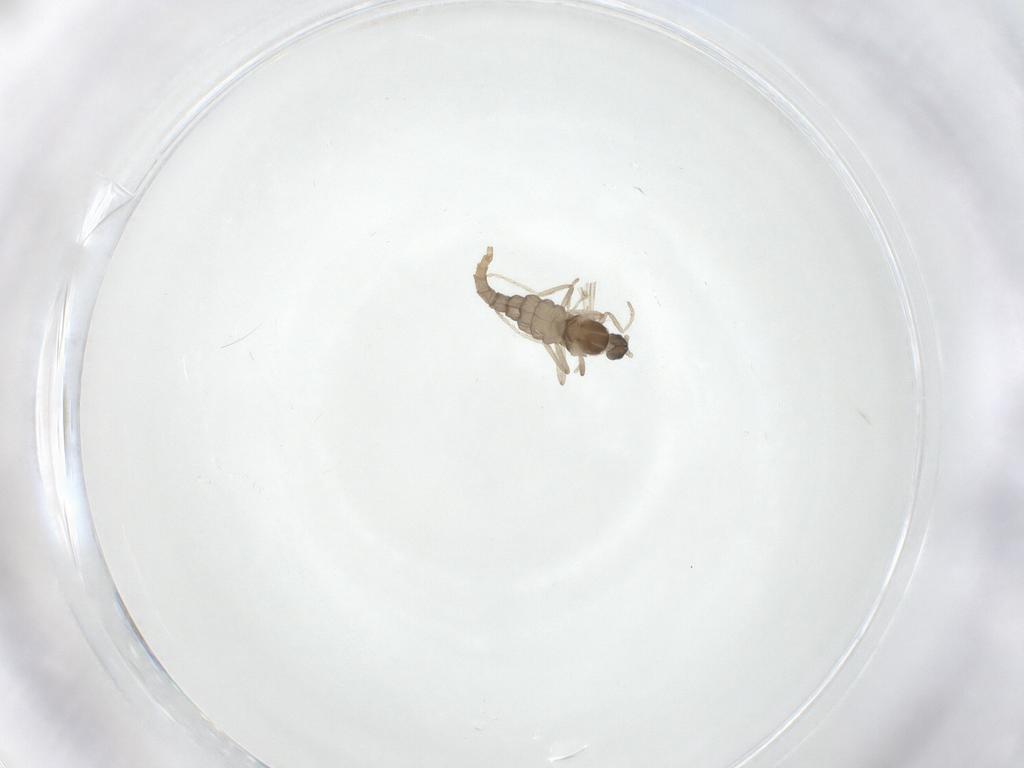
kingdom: Animalia
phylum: Arthropoda
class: Insecta
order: Diptera
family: Cecidomyiidae
